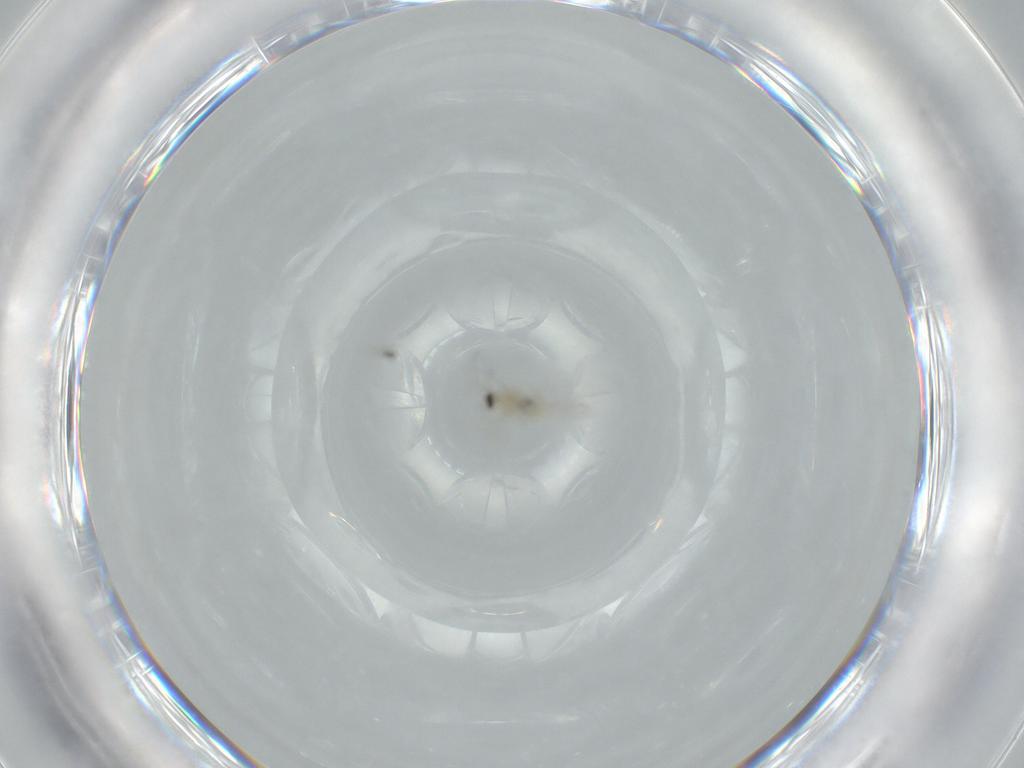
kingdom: Animalia
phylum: Arthropoda
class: Insecta
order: Diptera
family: Cecidomyiidae
